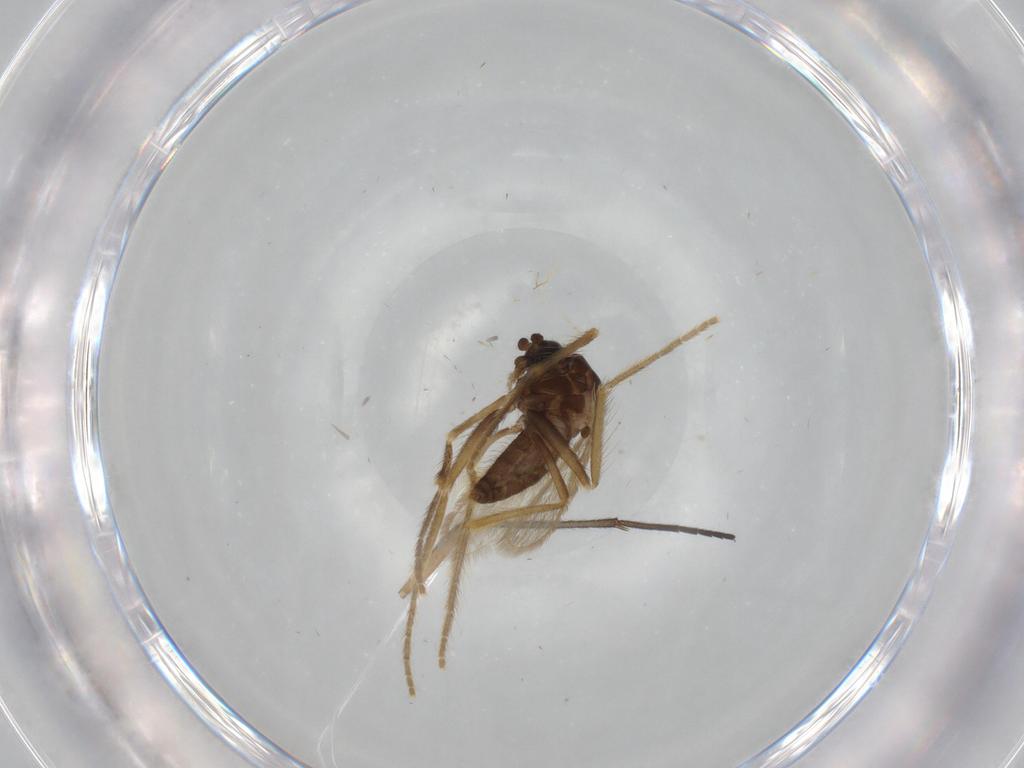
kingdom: Animalia
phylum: Arthropoda
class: Insecta
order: Diptera
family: Corethrellidae
